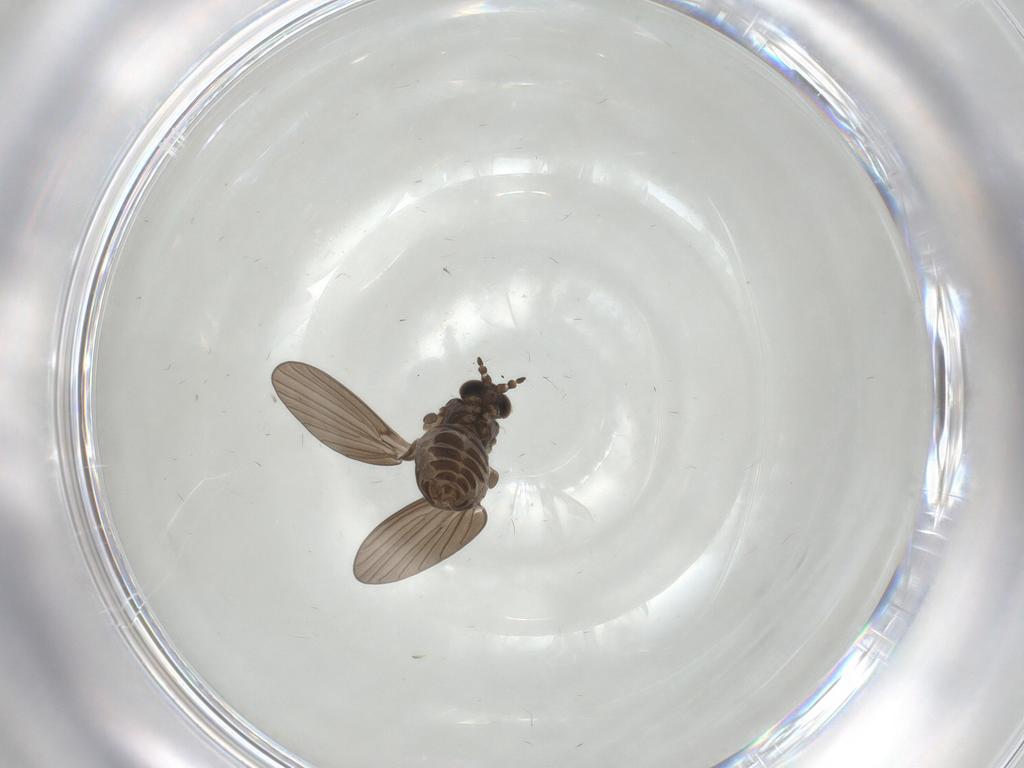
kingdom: Animalia
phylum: Arthropoda
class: Insecta
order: Diptera
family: Psychodidae
